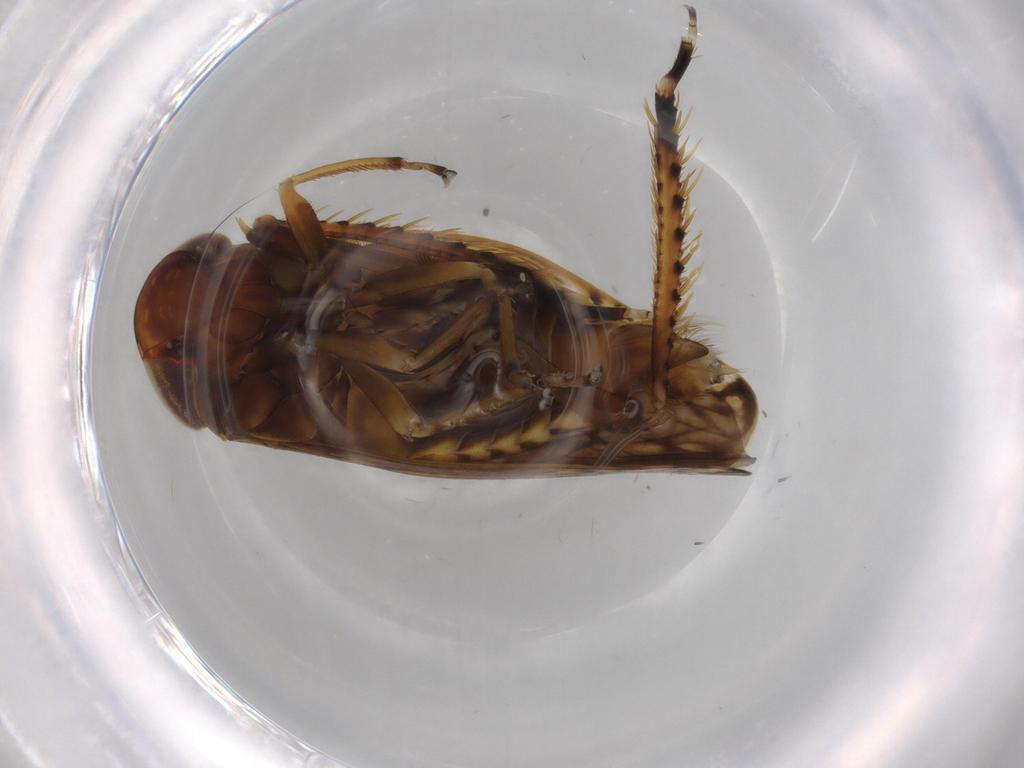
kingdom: Animalia
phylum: Arthropoda
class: Insecta
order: Hemiptera
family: Cicadellidae
